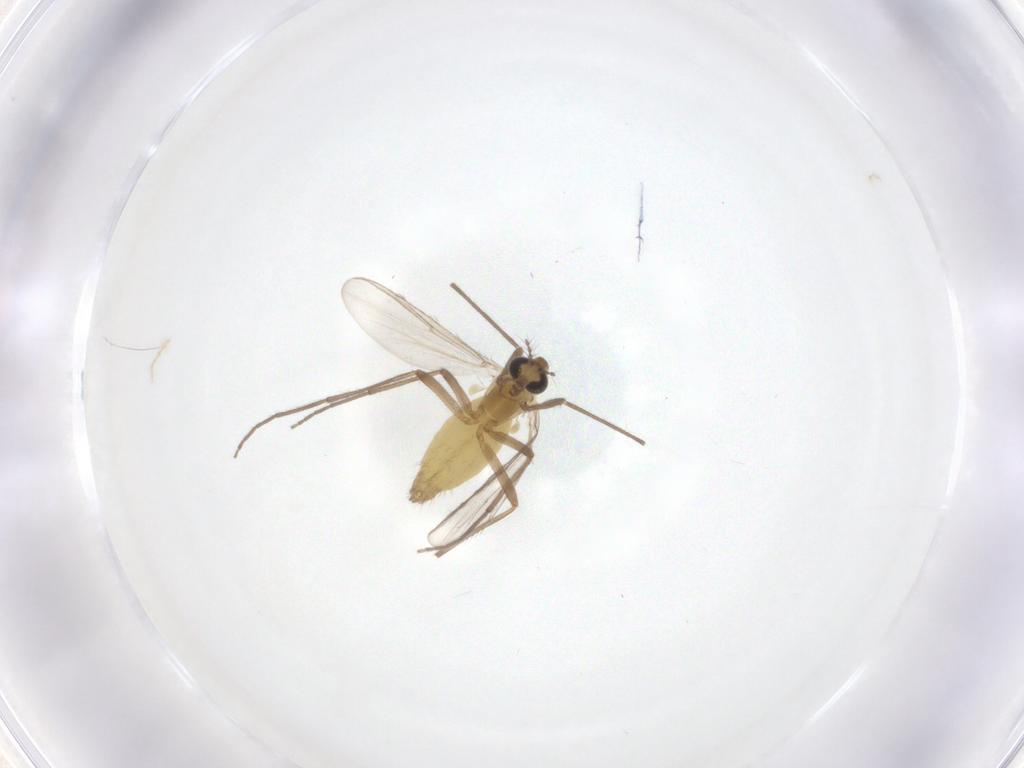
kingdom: Animalia
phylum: Arthropoda
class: Insecta
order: Diptera
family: Chironomidae
